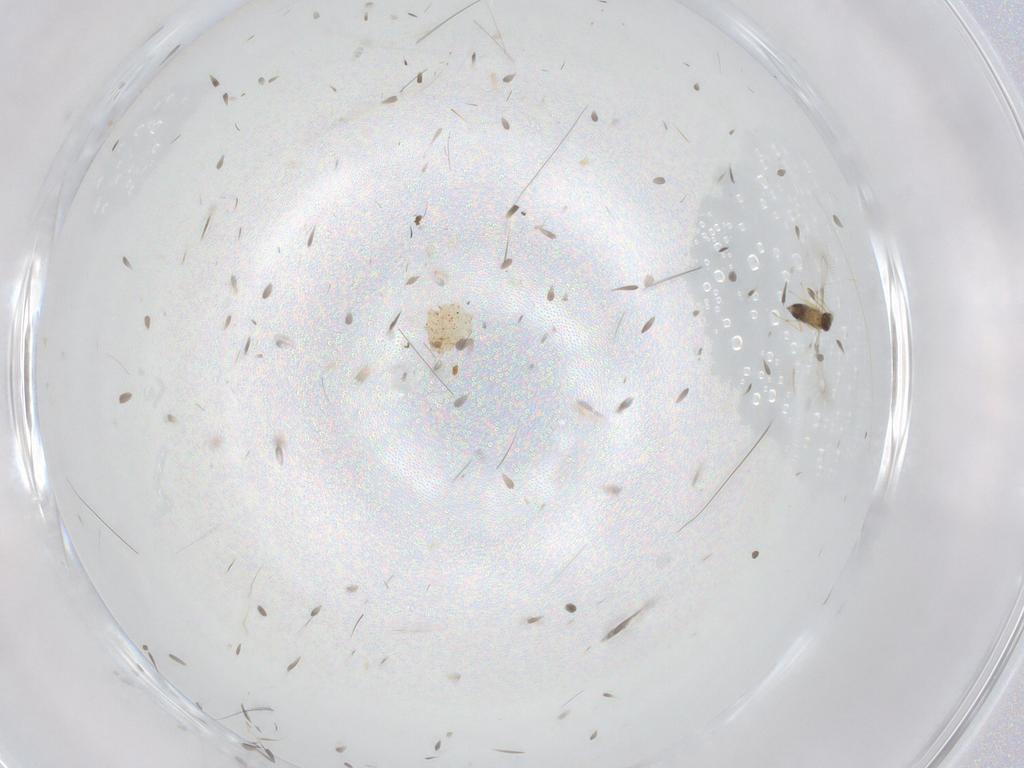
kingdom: Animalia
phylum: Arthropoda
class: Insecta
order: Hymenoptera
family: Mymaridae
